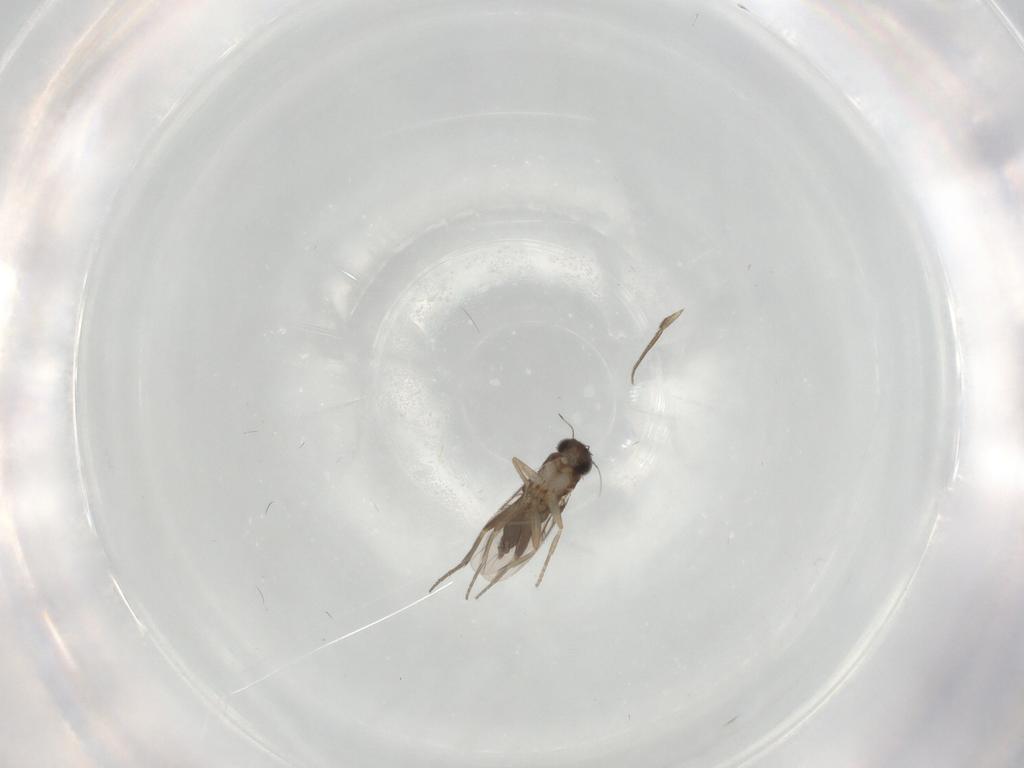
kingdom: Animalia
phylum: Arthropoda
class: Insecta
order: Diptera
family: Phoridae
